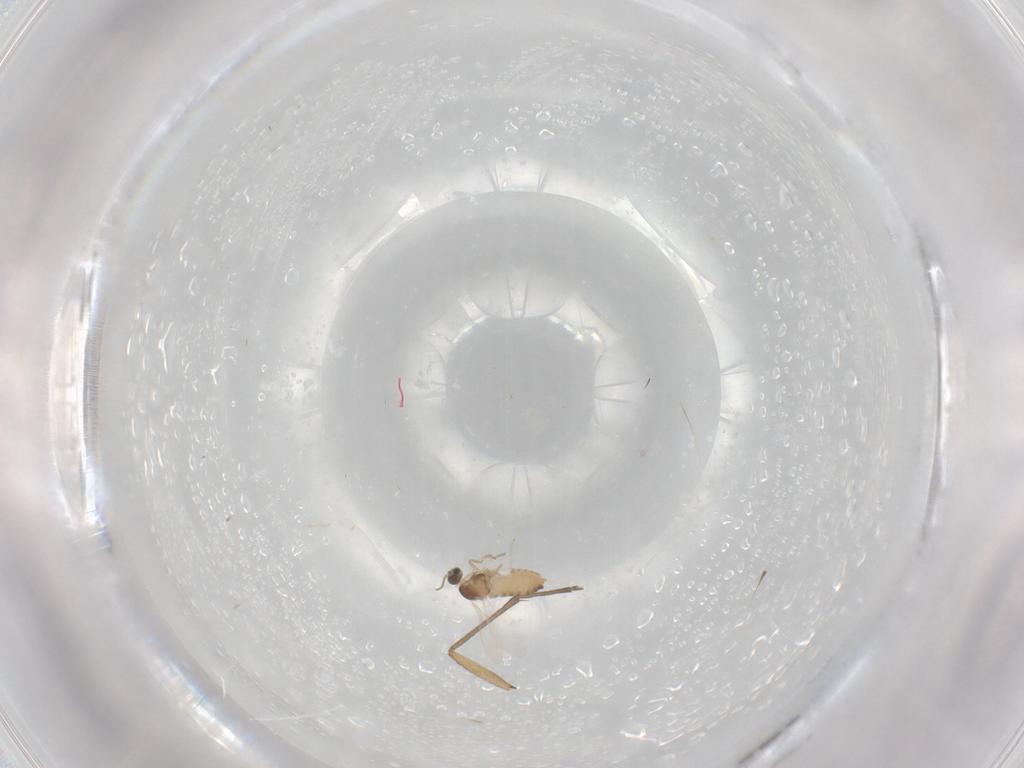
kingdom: Animalia
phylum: Arthropoda
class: Insecta
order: Diptera
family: Cecidomyiidae
